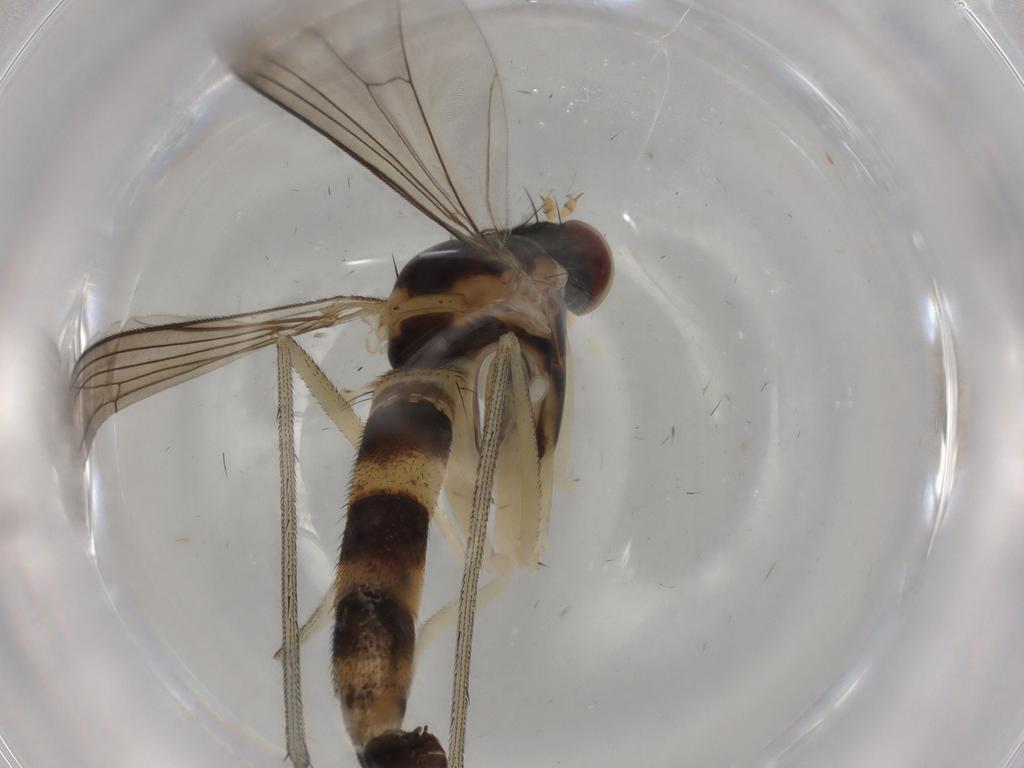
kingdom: Animalia
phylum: Arthropoda
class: Insecta
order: Diptera
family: Muscidae
